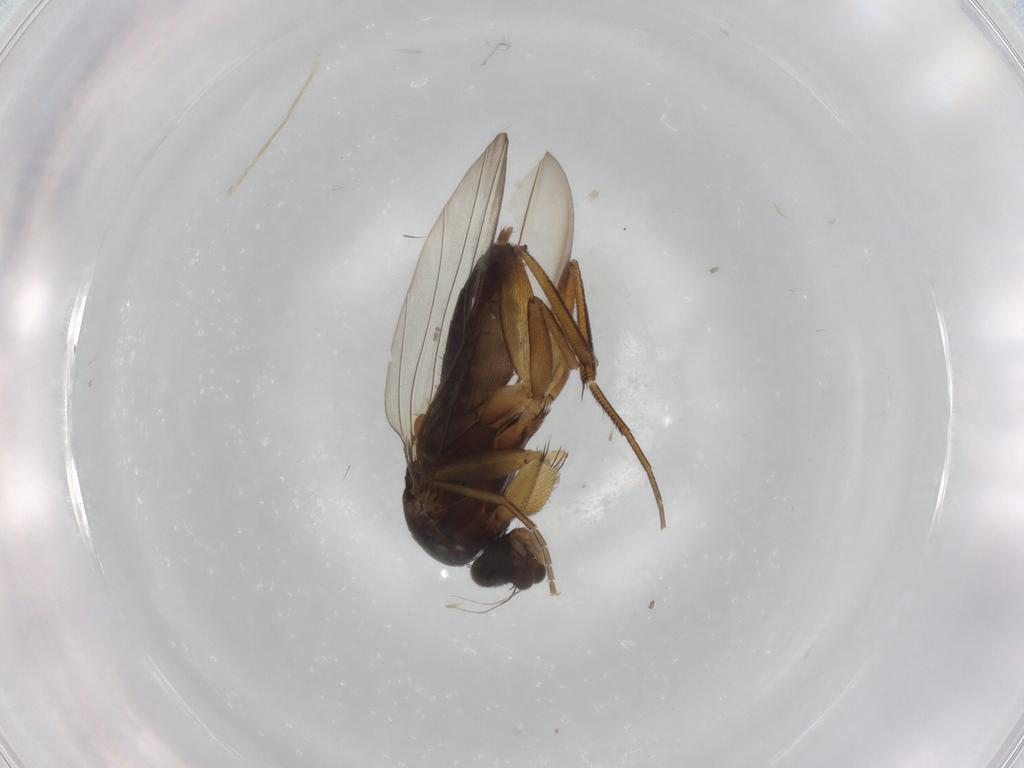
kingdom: Animalia
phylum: Arthropoda
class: Insecta
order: Diptera
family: Phoridae
